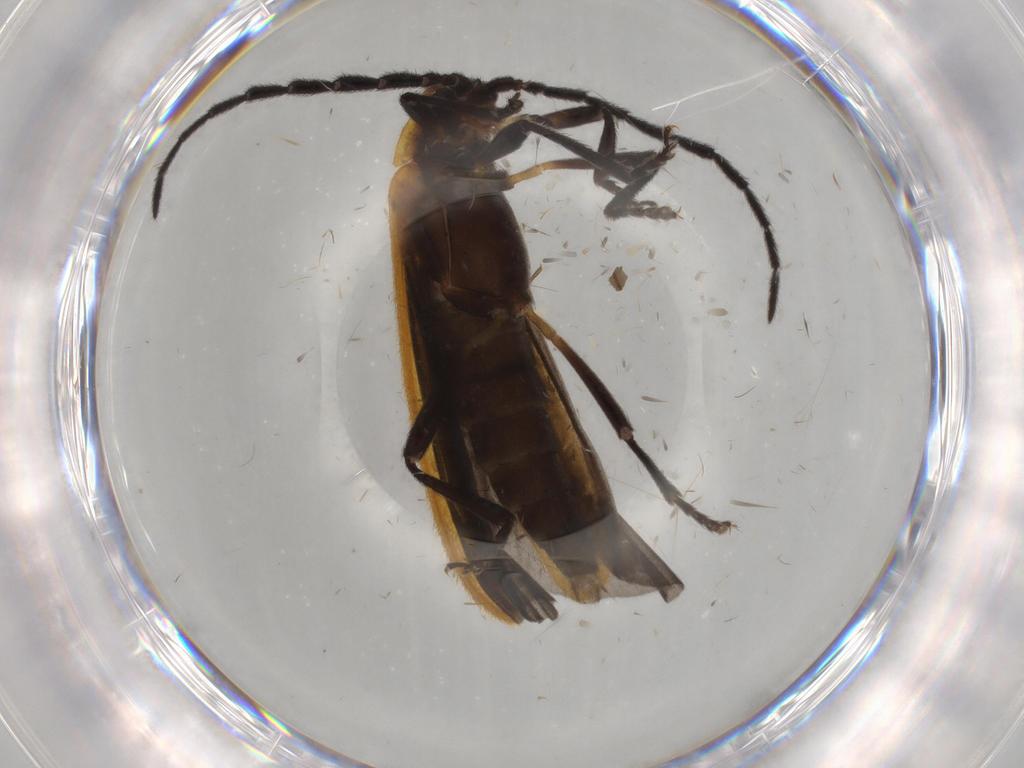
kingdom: Animalia
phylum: Arthropoda
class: Insecta
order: Coleoptera
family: Lycidae
